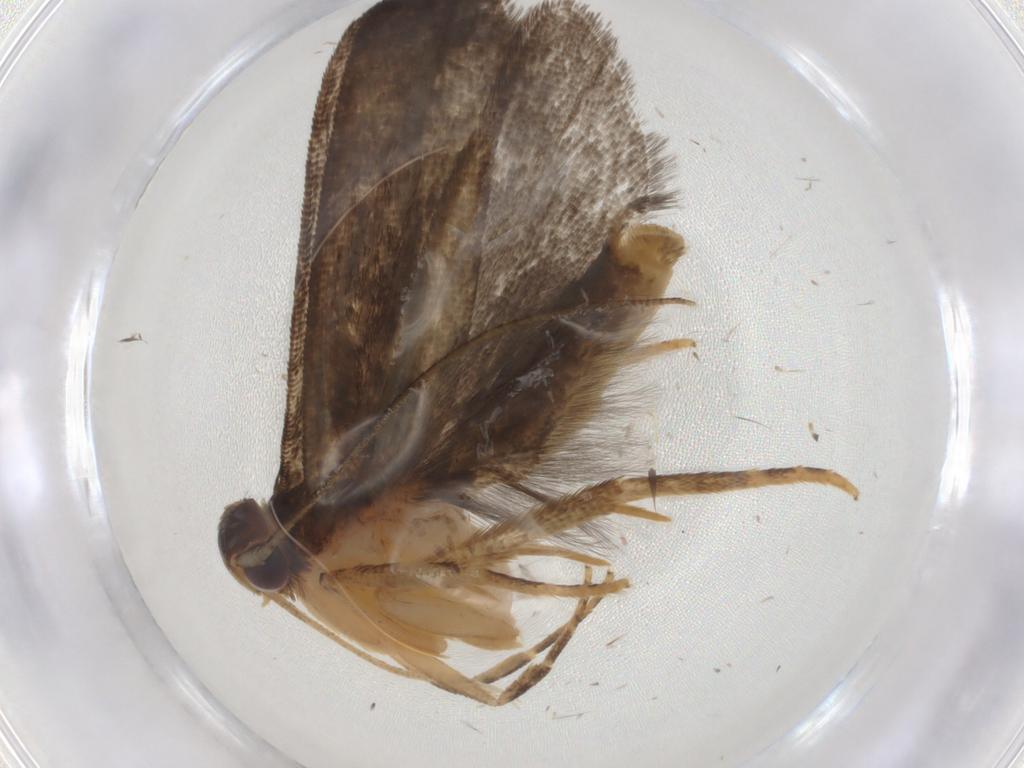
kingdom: Animalia
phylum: Arthropoda
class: Insecta
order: Lepidoptera
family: Gelechiidae
